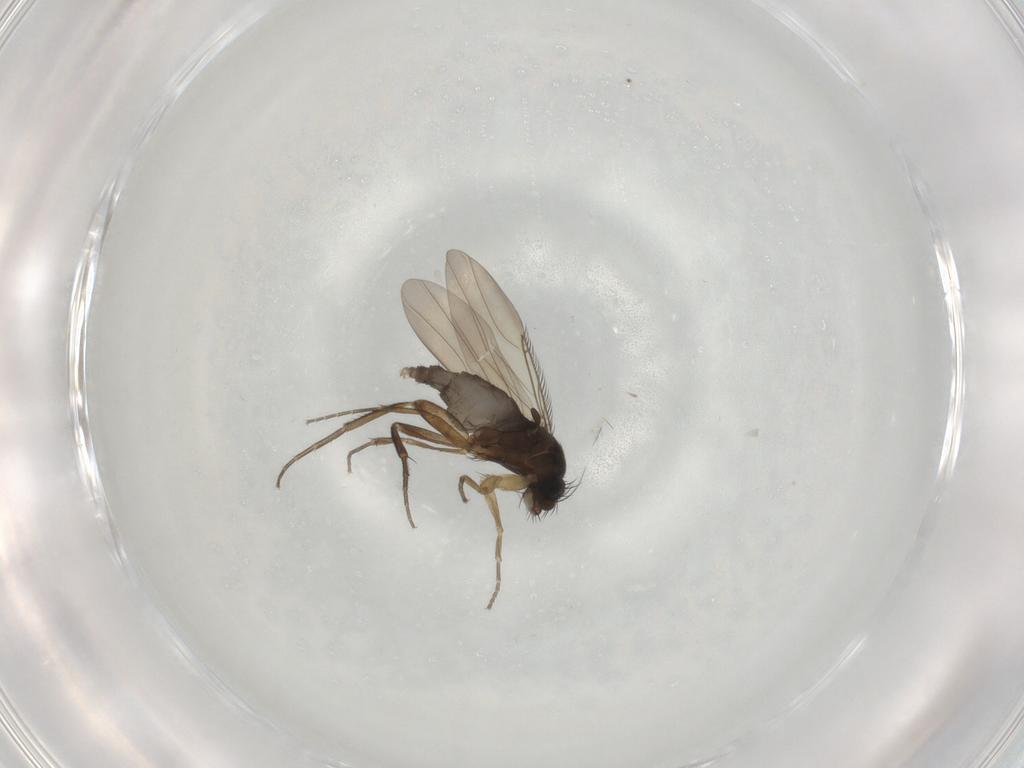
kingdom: Animalia
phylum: Arthropoda
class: Insecta
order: Diptera
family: Phoridae
